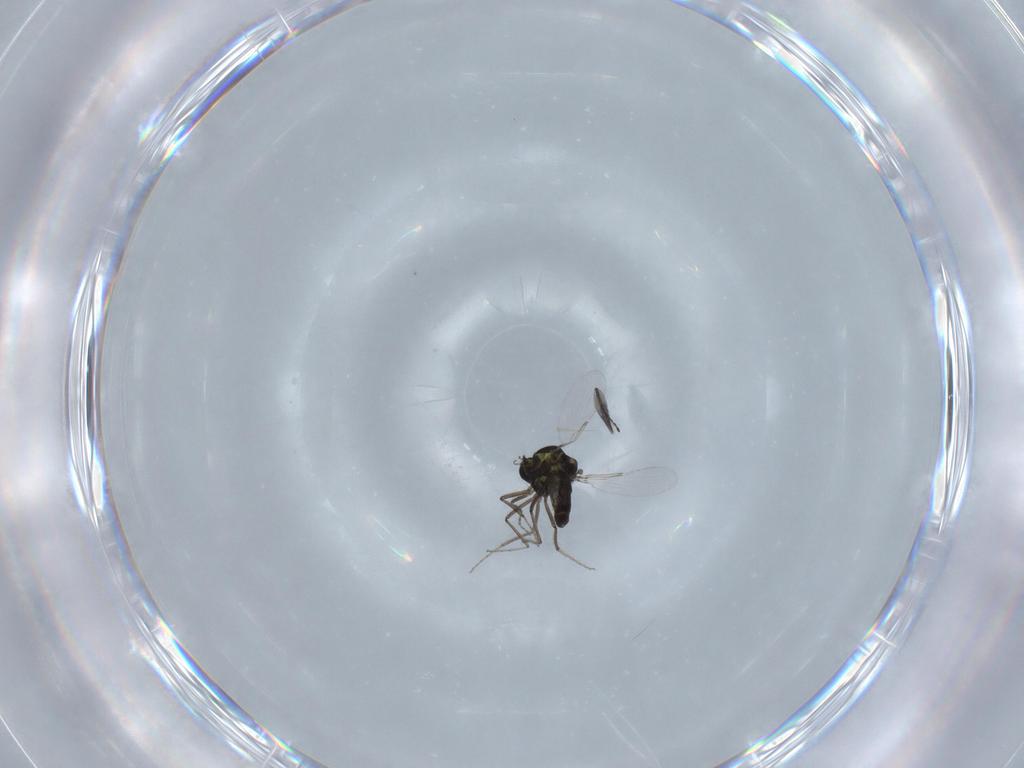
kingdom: Animalia
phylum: Arthropoda
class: Insecta
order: Diptera
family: Ceratopogonidae
